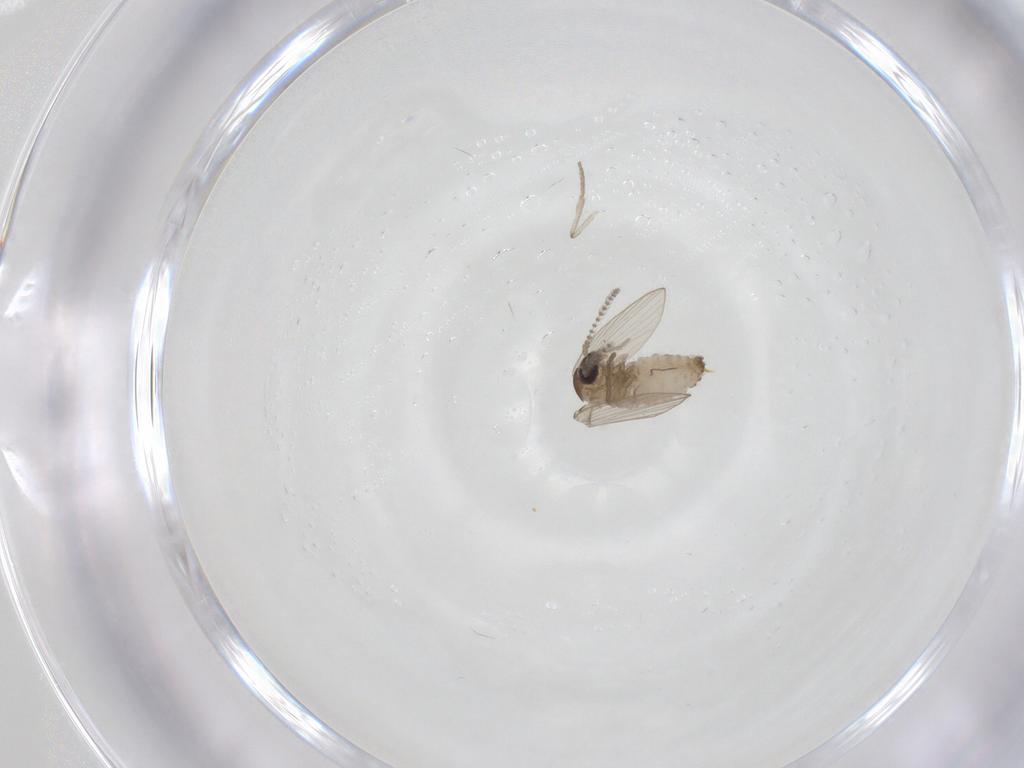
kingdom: Animalia
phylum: Arthropoda
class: Insecta
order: Diptera
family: Psychodidae
